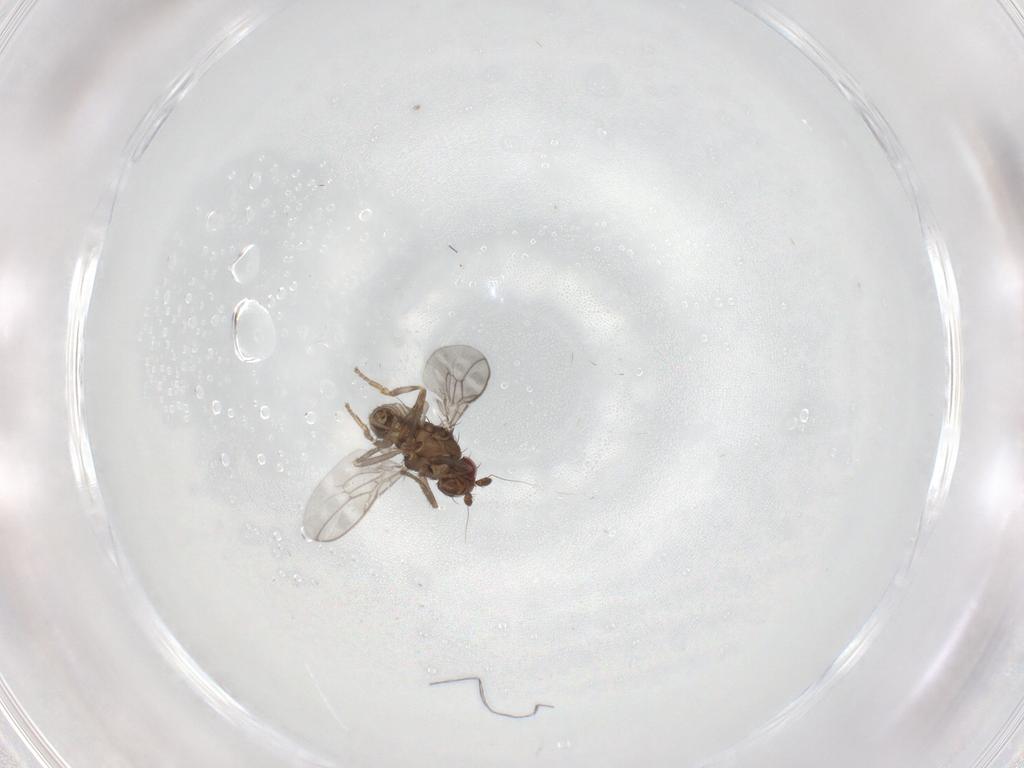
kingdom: Animalia
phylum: Arthropoda
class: Insecta
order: Diptera
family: Sphaeroceridae
